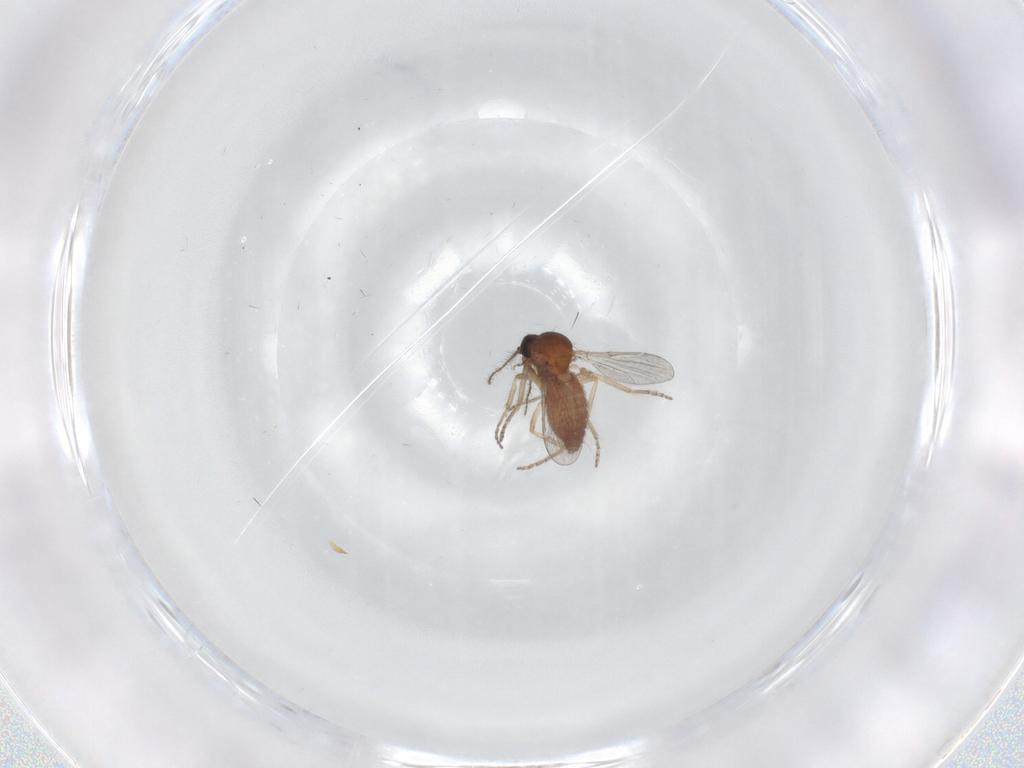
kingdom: Animalia
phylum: Arthropoda
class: Insecta
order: Diptera
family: Ceratopogonidae
